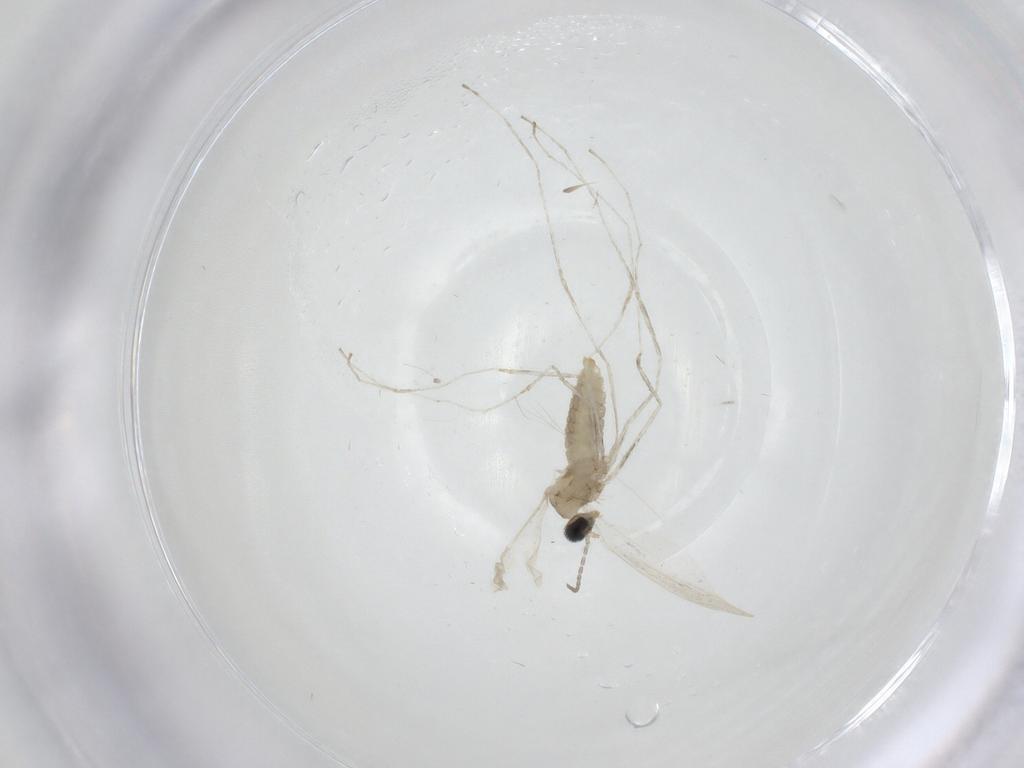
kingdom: Animalia
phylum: Arthropoda
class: Insecta
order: Diptera
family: Cecidomyiidae
